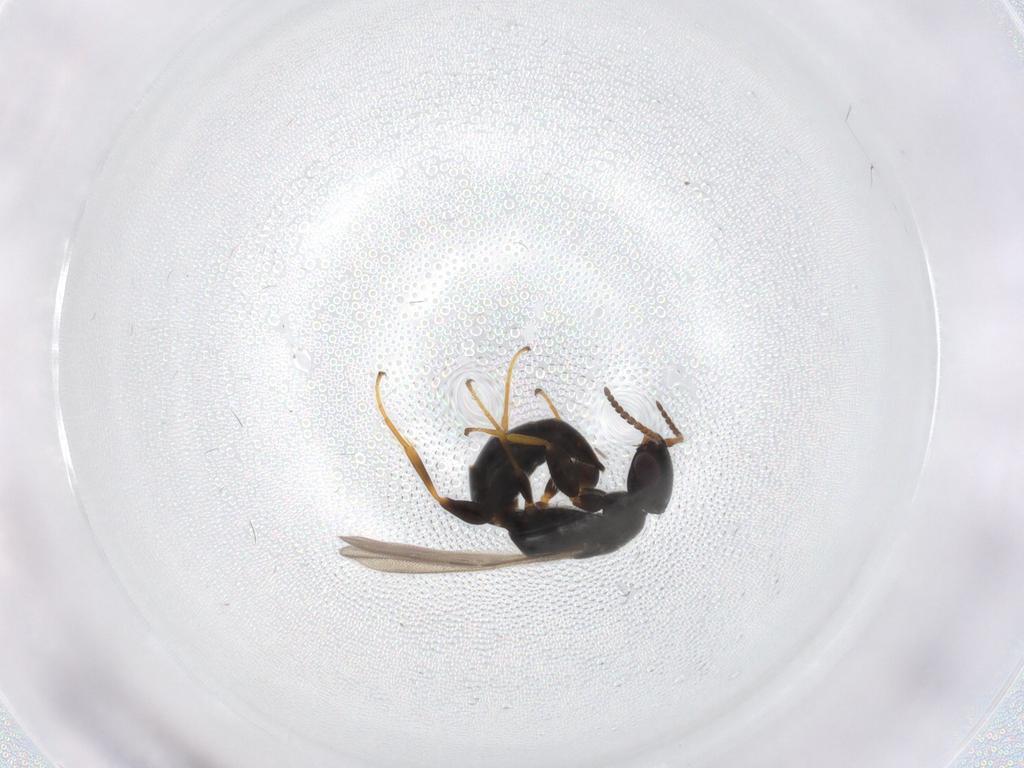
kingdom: Animalia
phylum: Arthropoda
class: Insecta
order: Hymenoptera
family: Bethylidae
